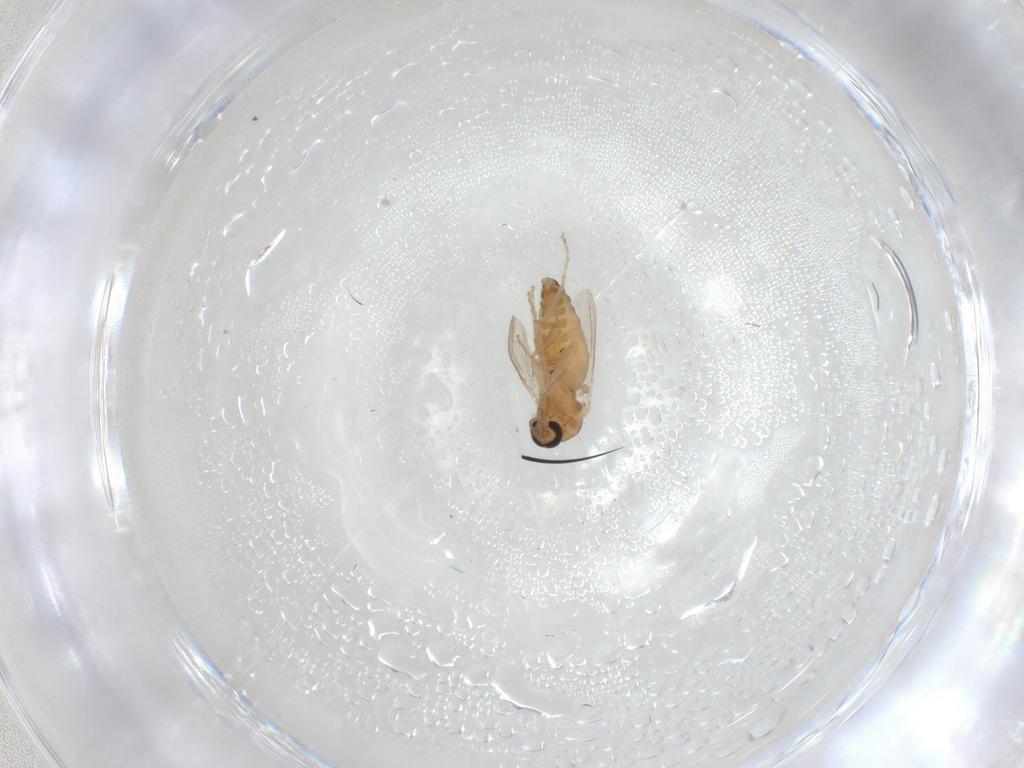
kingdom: Animalia
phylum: Arthropoda
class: Insecta
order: Diptera
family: Ceratopogonidae
